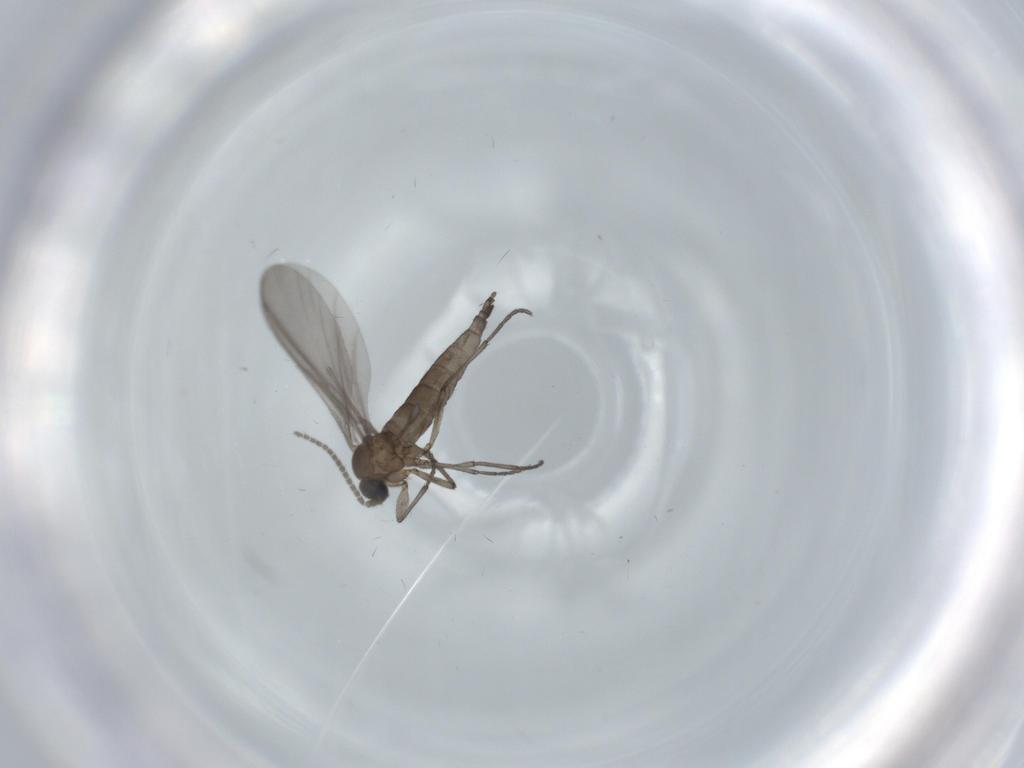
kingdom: Animalia
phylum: Arthropoda
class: Insecta
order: Diptera
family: Sciaridae
